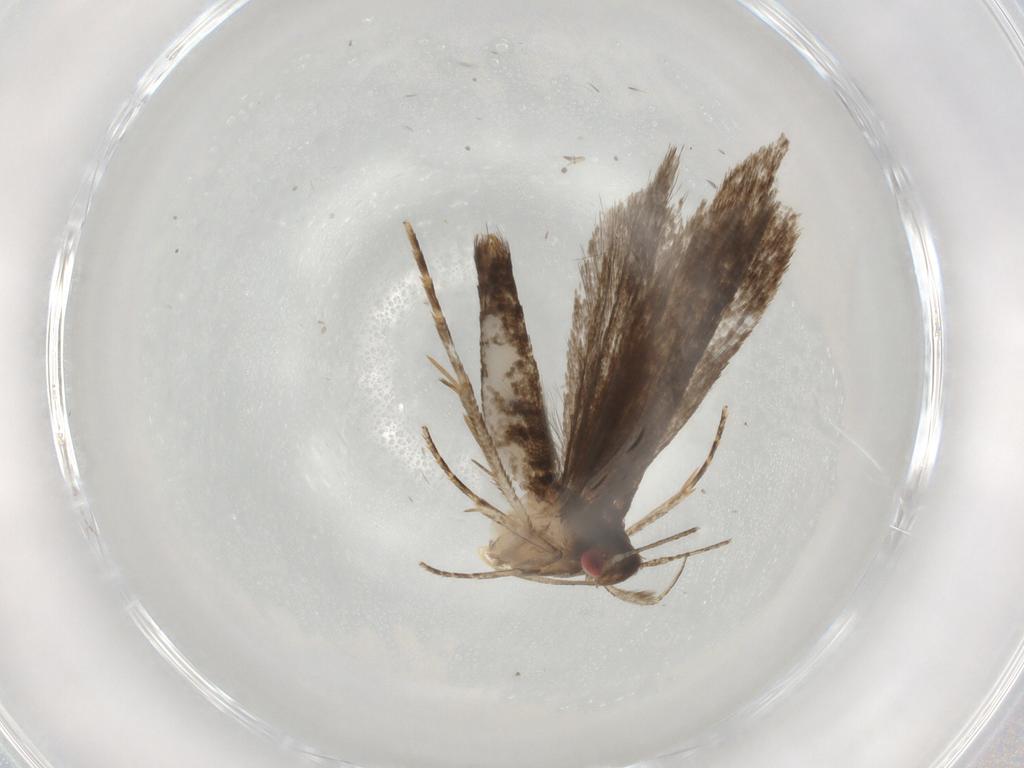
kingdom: Animalia
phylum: Arthropoda
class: Insecta
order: Lepidoptera
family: Gelechiidae
